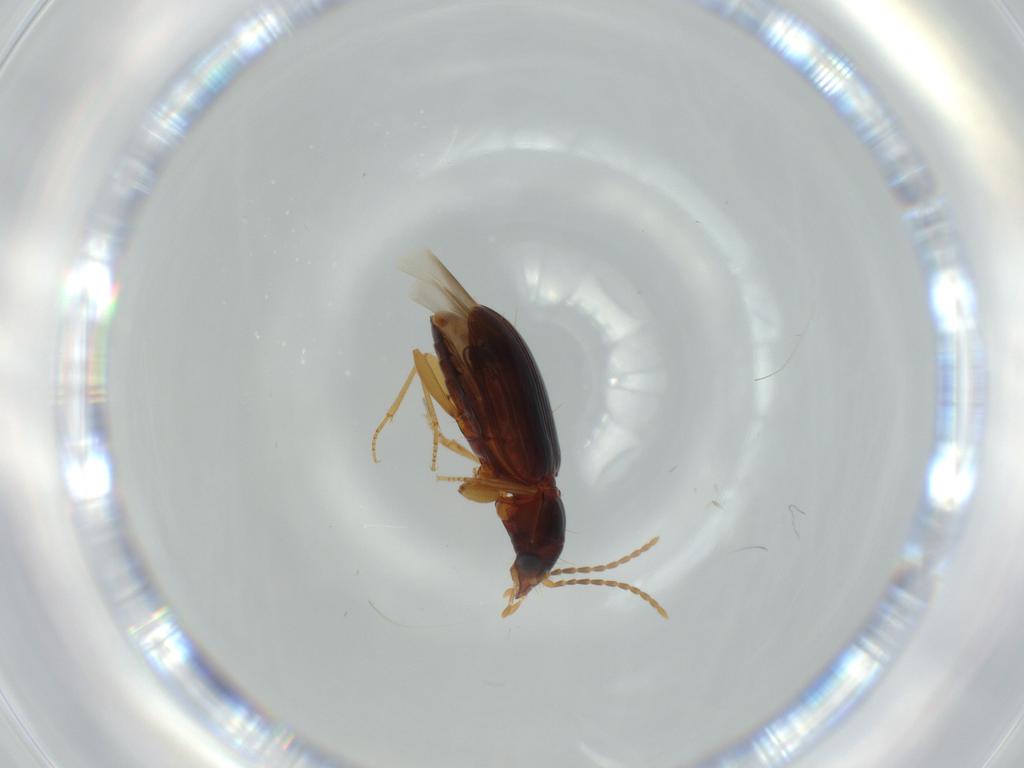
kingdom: Animalia
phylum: Arthropoda
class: Insecta
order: Coleoptera
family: Carabidae
